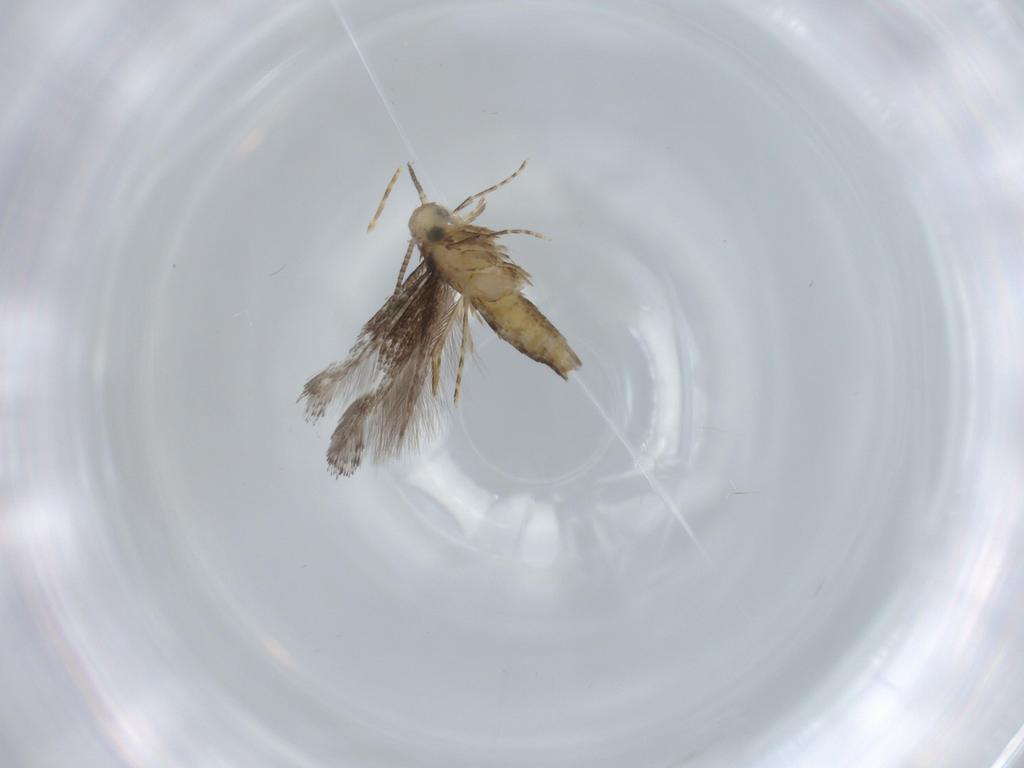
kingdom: Animalia
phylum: Arthropoda
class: Insecta
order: Lepidoptera
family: Gracillariidae
